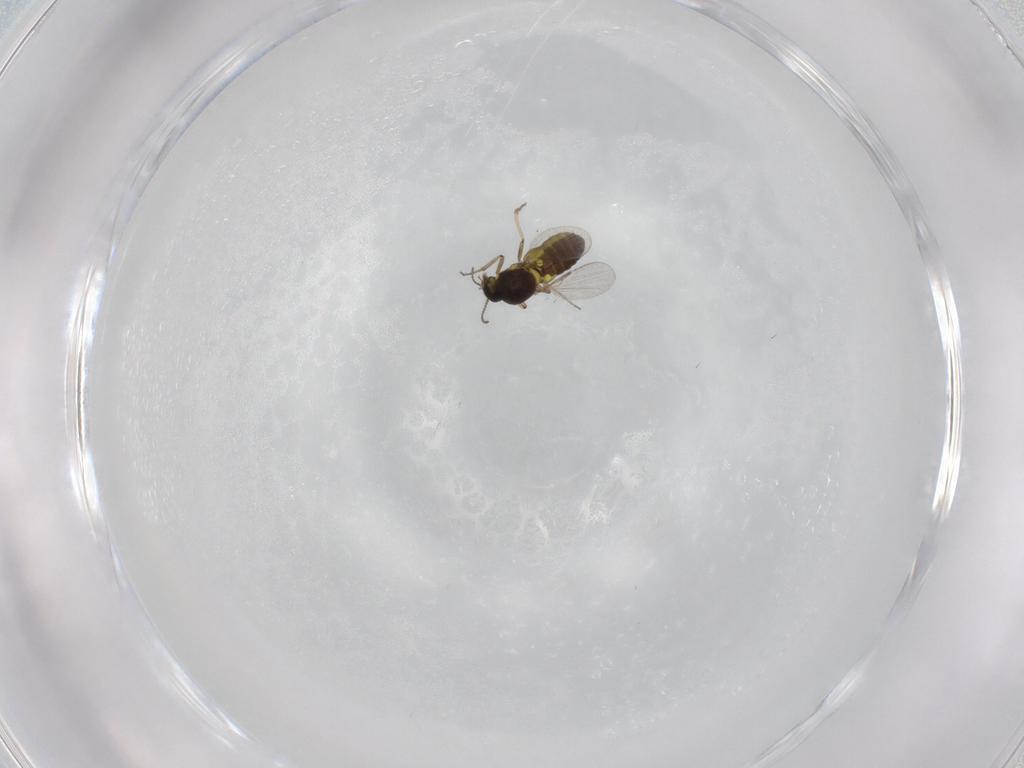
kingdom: Animalia
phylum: Arthropoda
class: Insecta
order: Diptera
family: Ceratopogonidae
